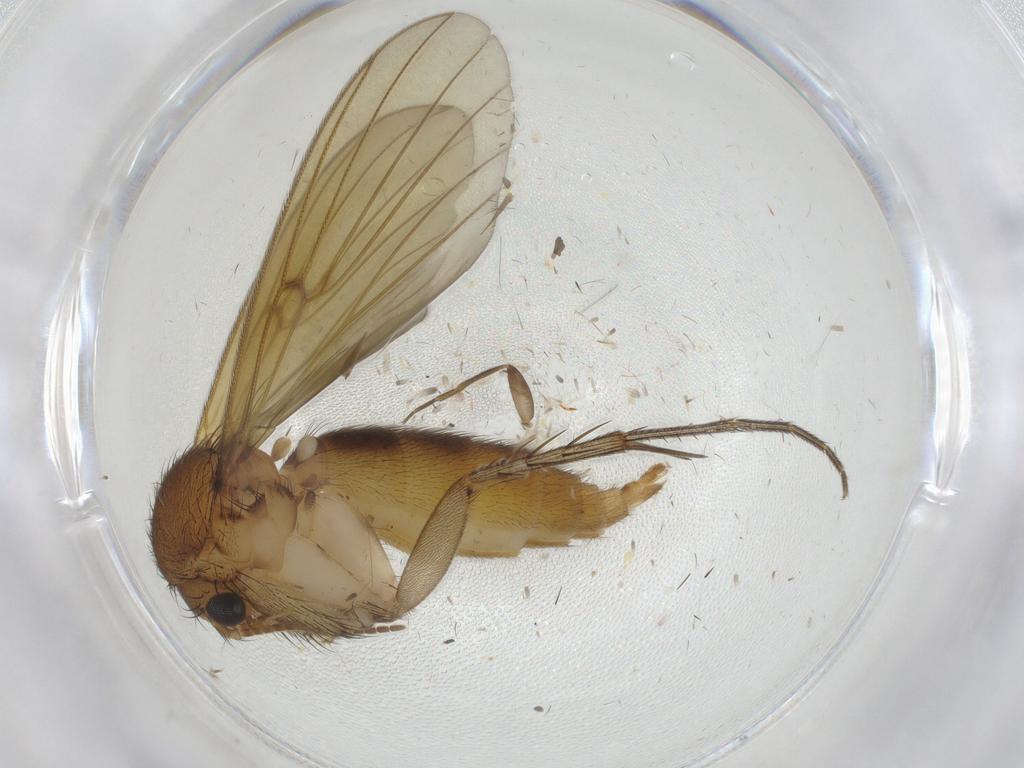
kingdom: Animalia
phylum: Arthropoda
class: Insecta
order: Diptera
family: Mycetophilidae
